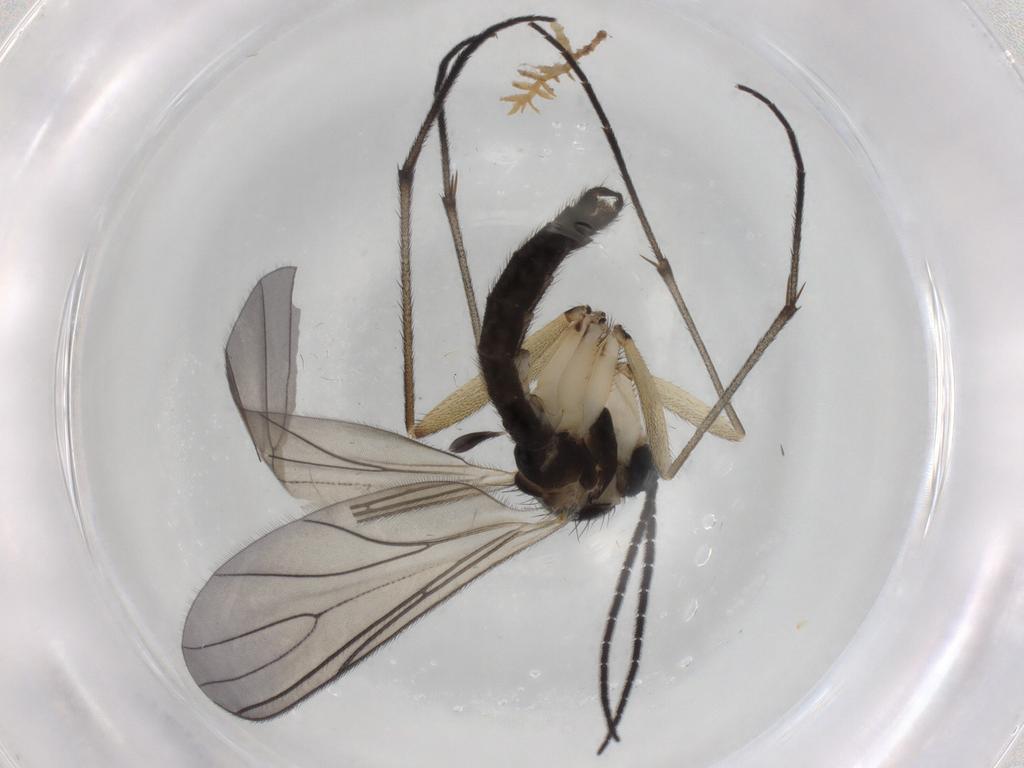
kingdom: Animalia
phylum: Arthropoda
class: Insecta
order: Diptera
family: Sciaridae
